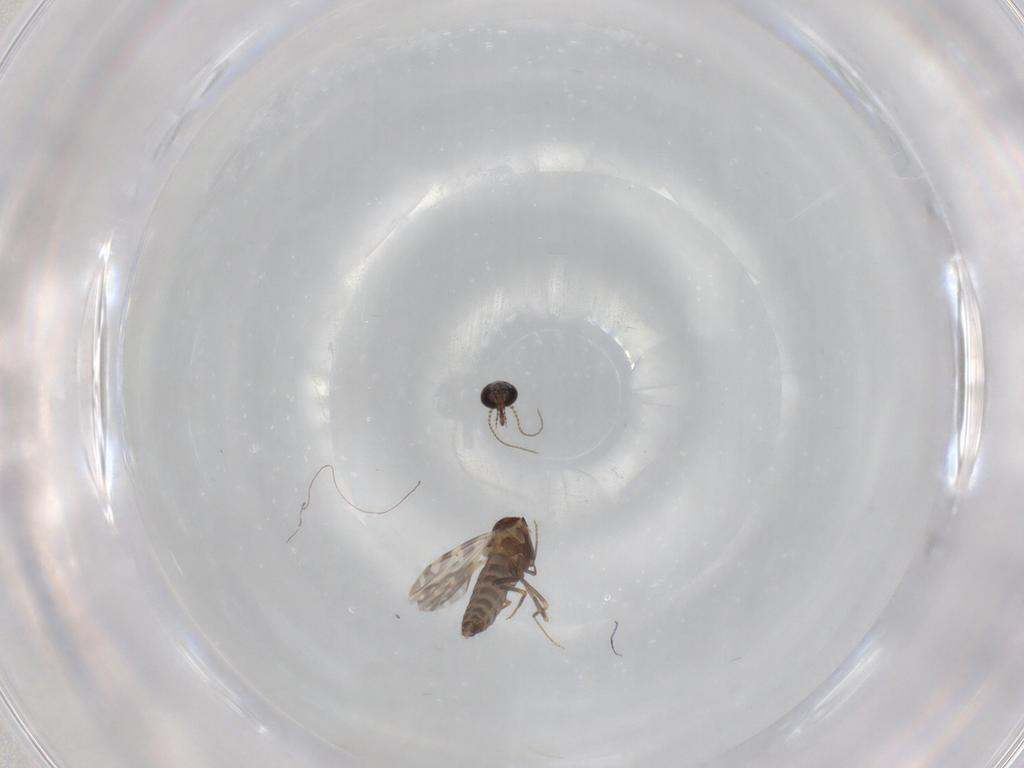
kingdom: Animalia
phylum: Arthropoda
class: Insecta
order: Diptera
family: Ceratopogonidae
